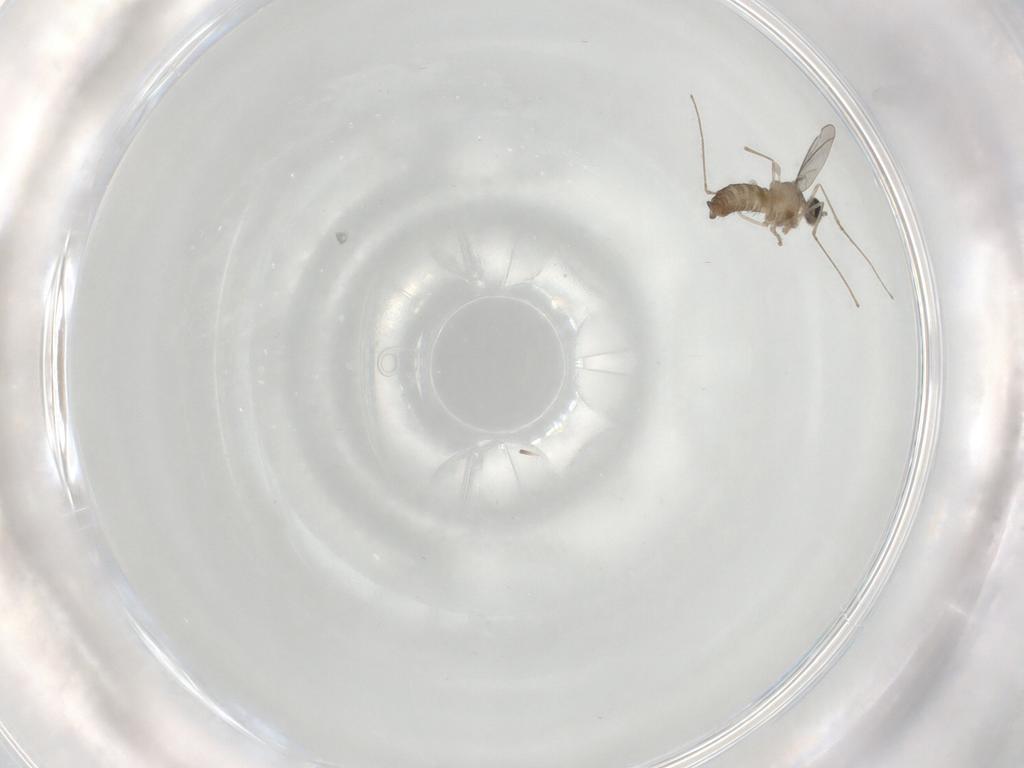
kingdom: Animalia
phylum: Arthropoda
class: Insecta
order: Diptera
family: Cecidomyiidae
